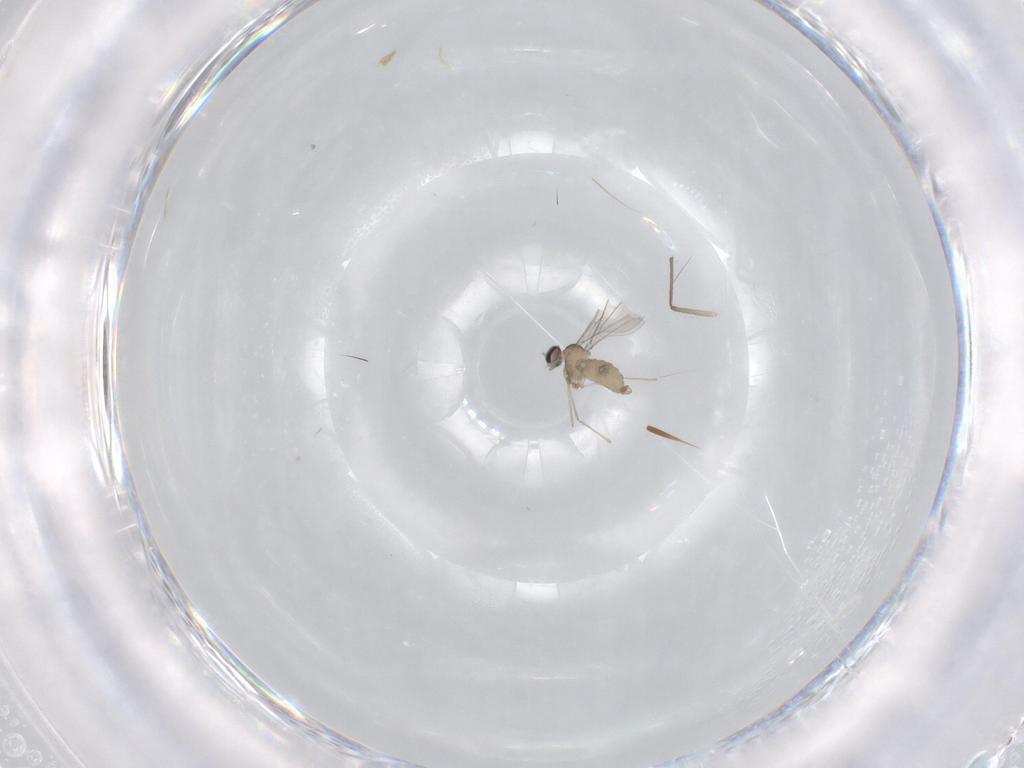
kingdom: Animalia
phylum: Arthropoda
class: Insecta
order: Diptera
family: Chironomidae
